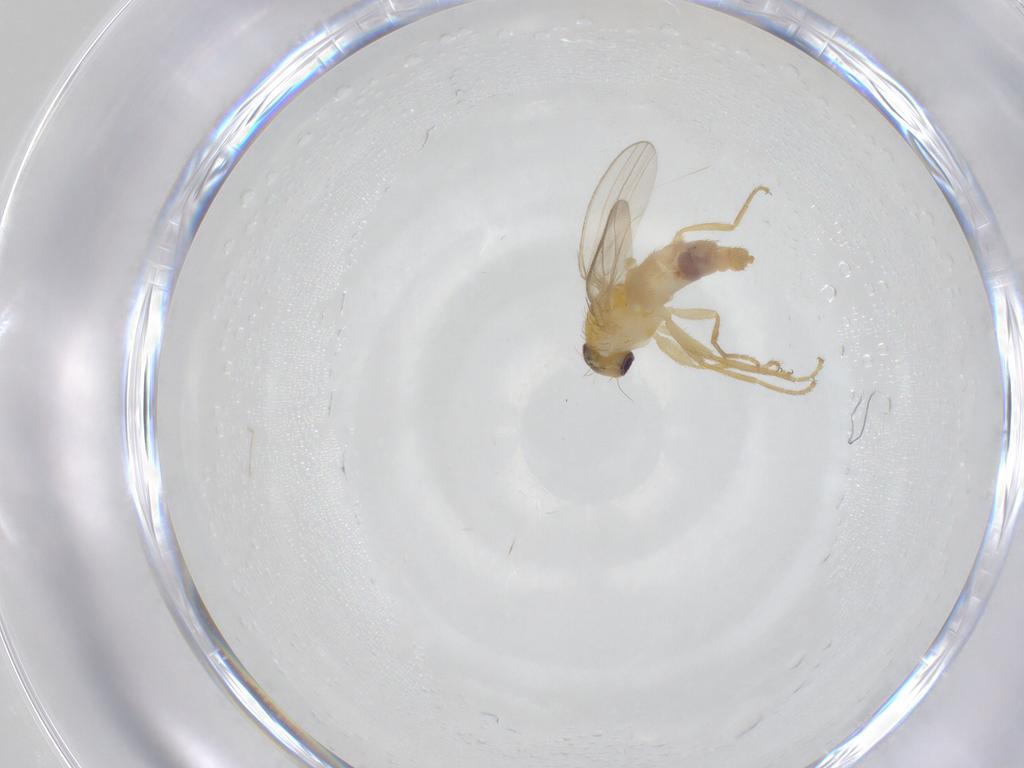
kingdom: Animalia
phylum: Arthropoda
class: Insecta
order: Diptera
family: Chyromyidae
